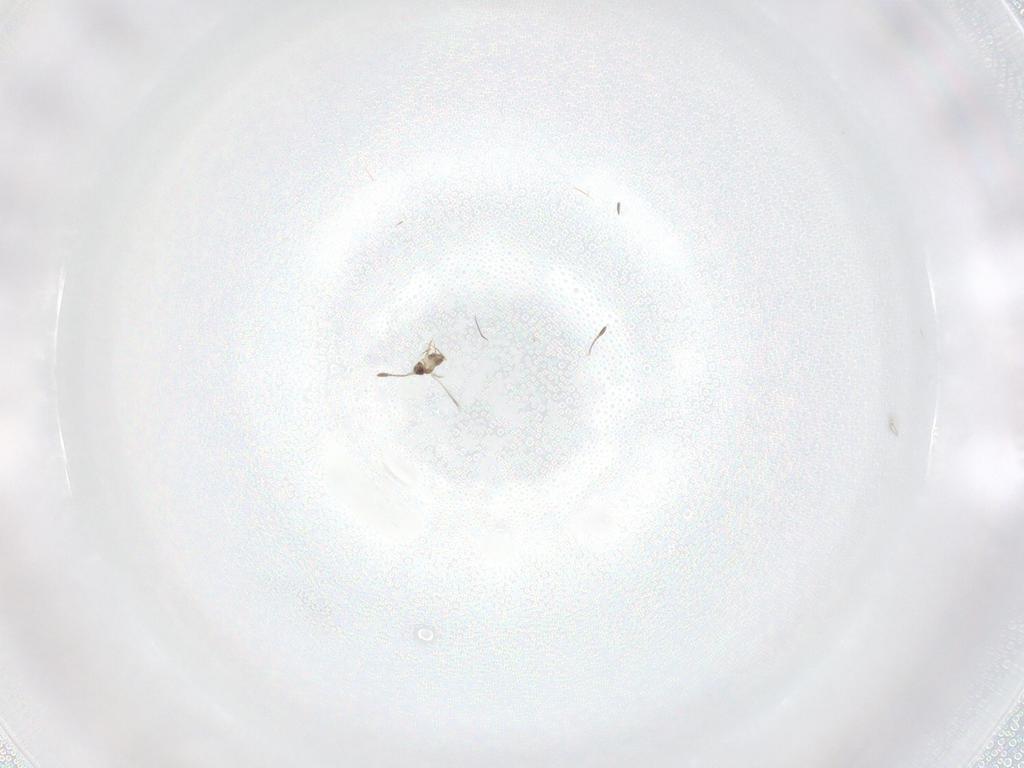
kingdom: Animalia
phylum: Arthropoda
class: Insecta
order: Hymenoptera
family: Mymaridae
